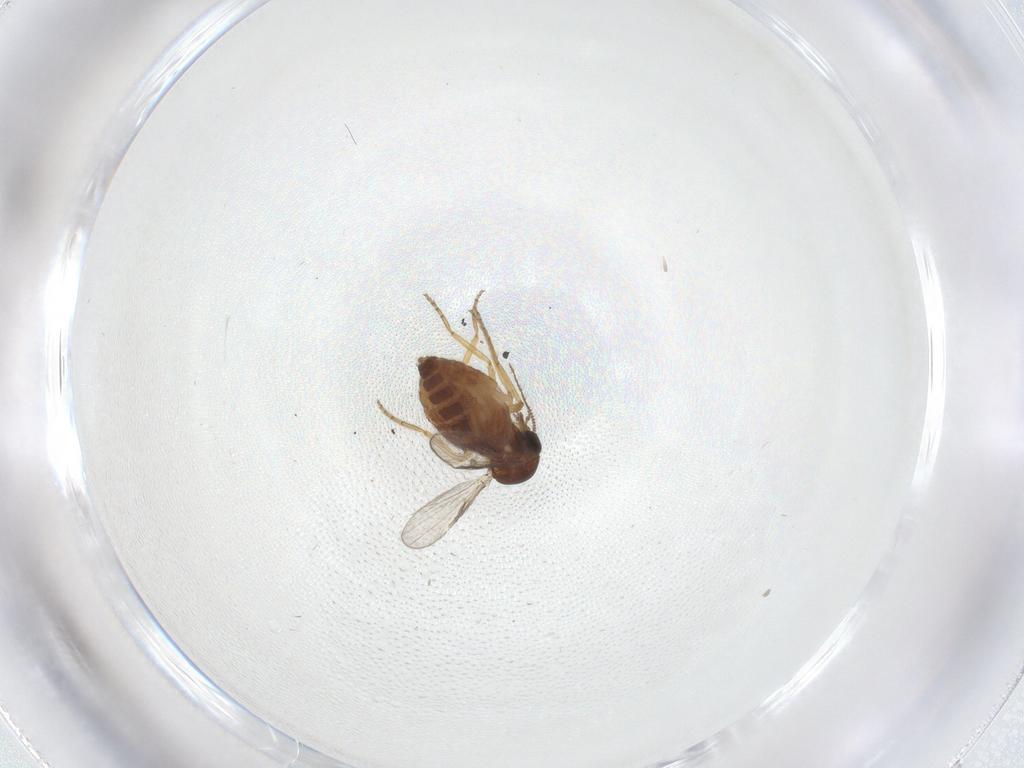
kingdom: Animalia
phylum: Arthropoda
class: Insecta
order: Diptera
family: Ceratopogonidae
